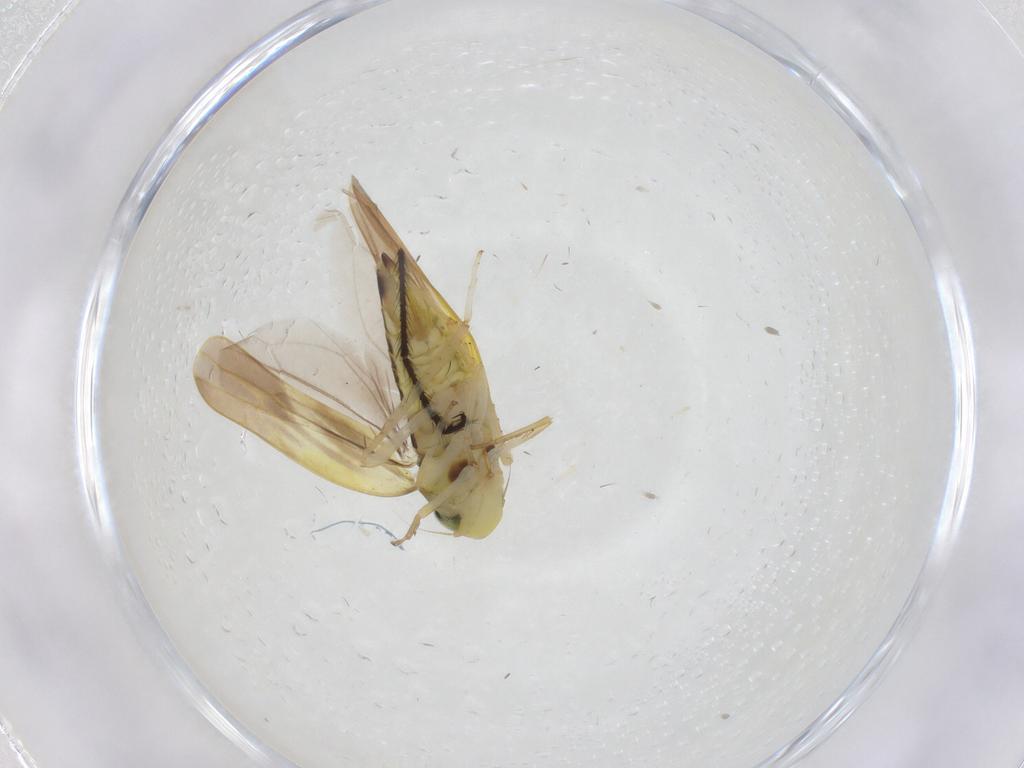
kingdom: Animalia
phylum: Arthropoda
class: Insecta
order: Hemiptera
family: Cicadellidae
